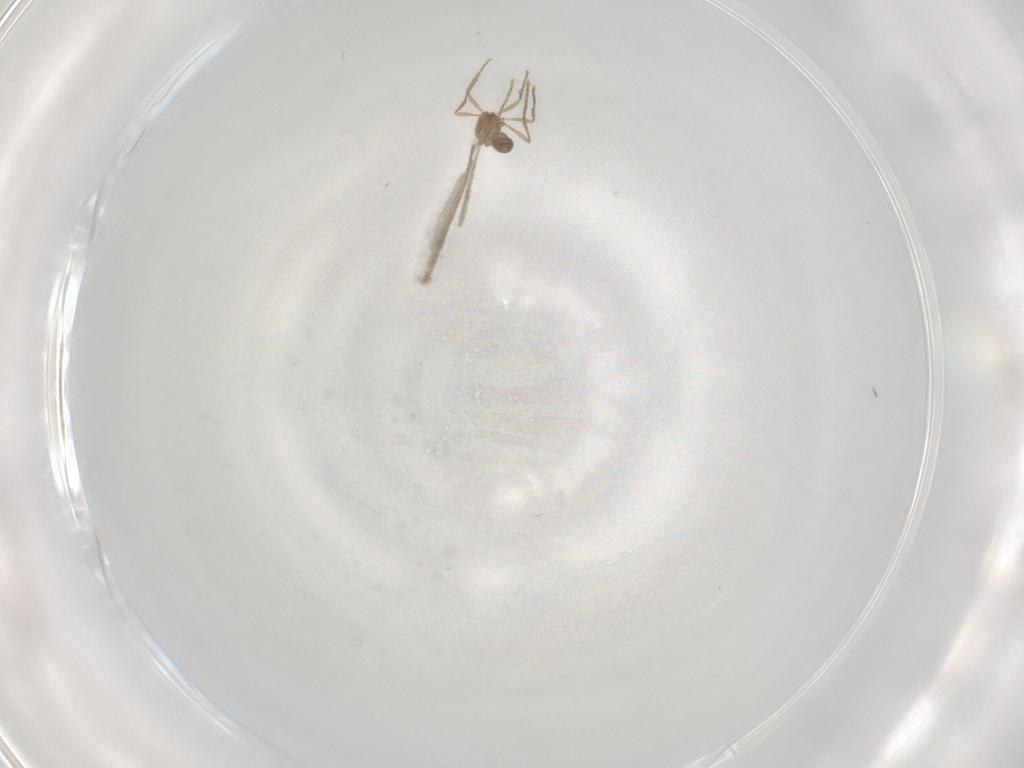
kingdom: Animalia
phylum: Arthropoda
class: Insecta
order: Hymenoptera
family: Formicidae
